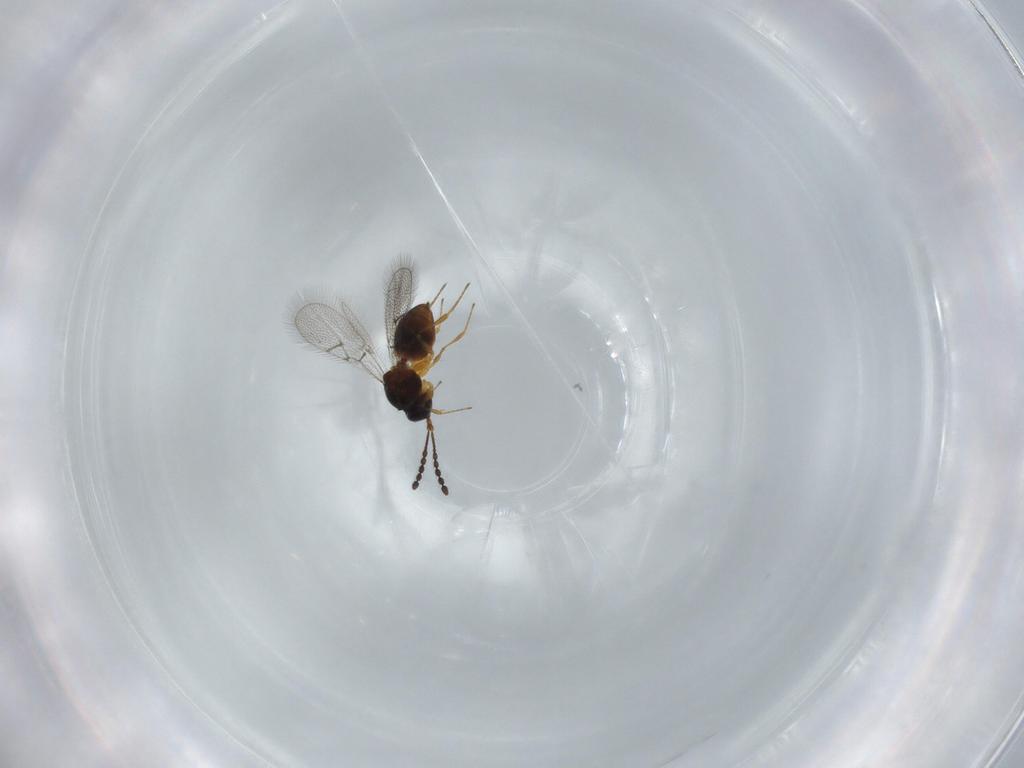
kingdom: Animalia
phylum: Arthropoda
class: Insecta
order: Hymenoptera
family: Figitidae
